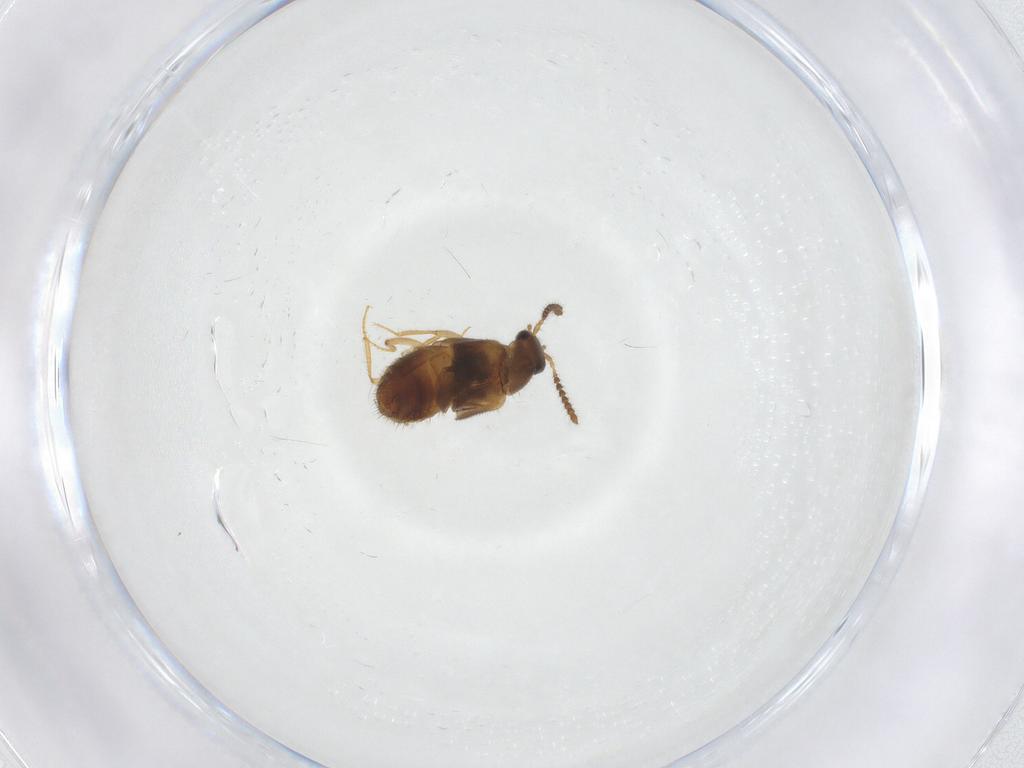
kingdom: Animalia
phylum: Arthropoda
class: Insecta
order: Coleoptera
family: Staphylinidae
